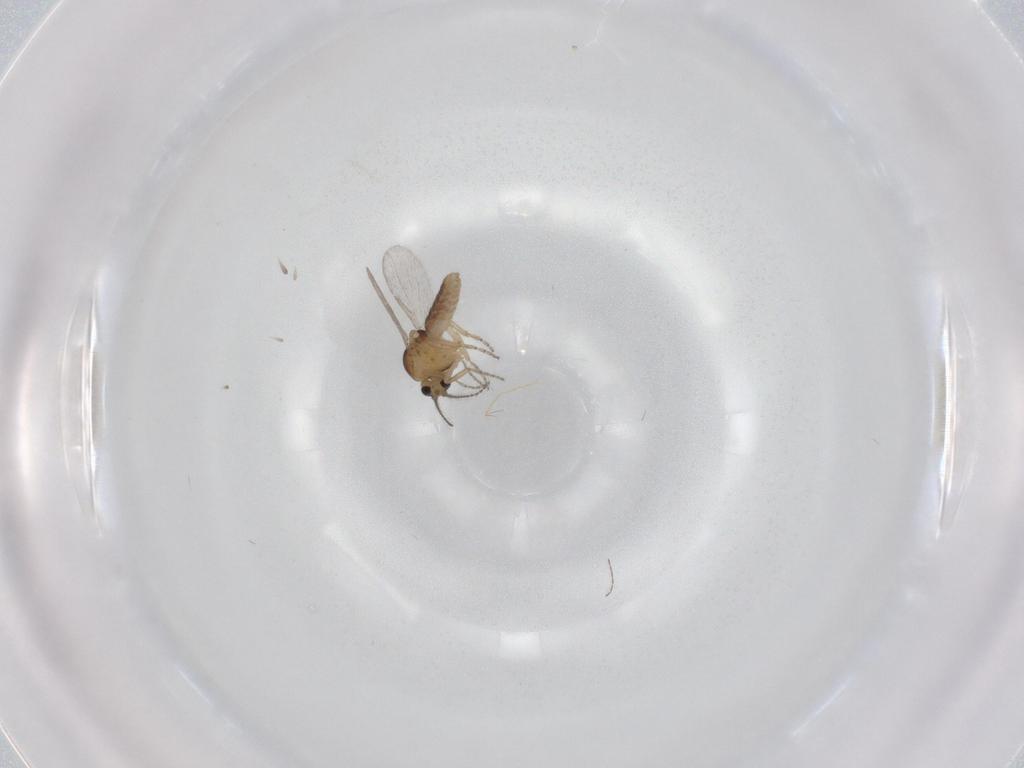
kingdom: Animalia
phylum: Arthropoda
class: Insecta
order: Diptera
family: Ceratopogonidae
